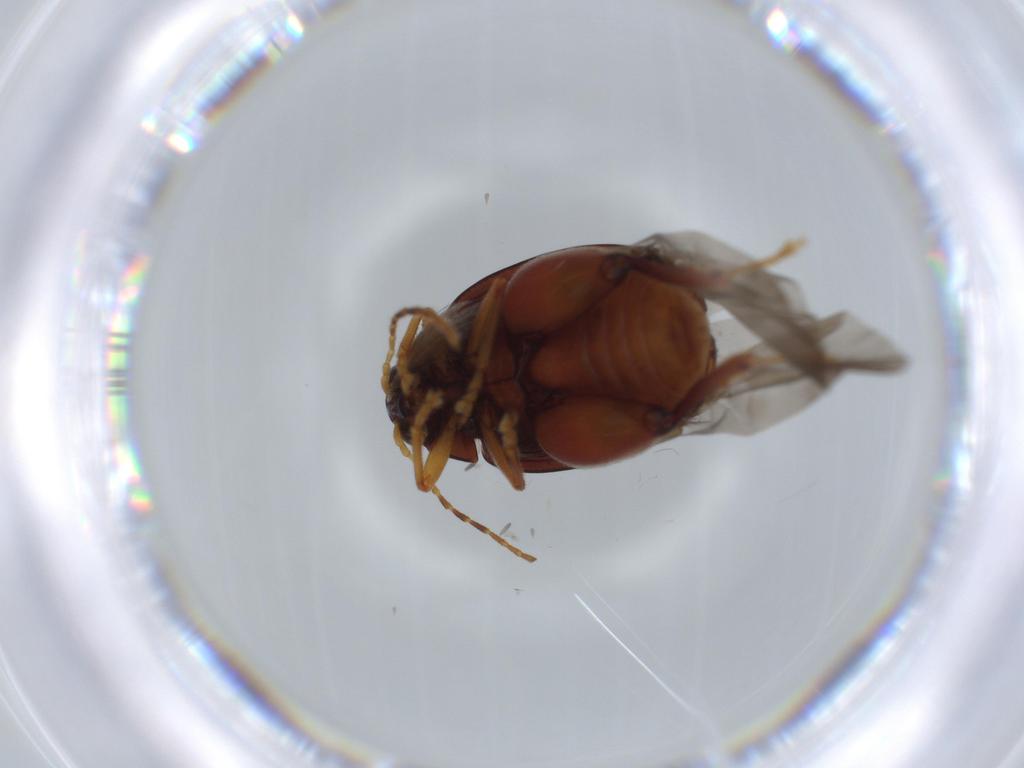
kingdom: Animalia
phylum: Arthropoda
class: Insecta
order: Coleoptera
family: Chrysomelidae
